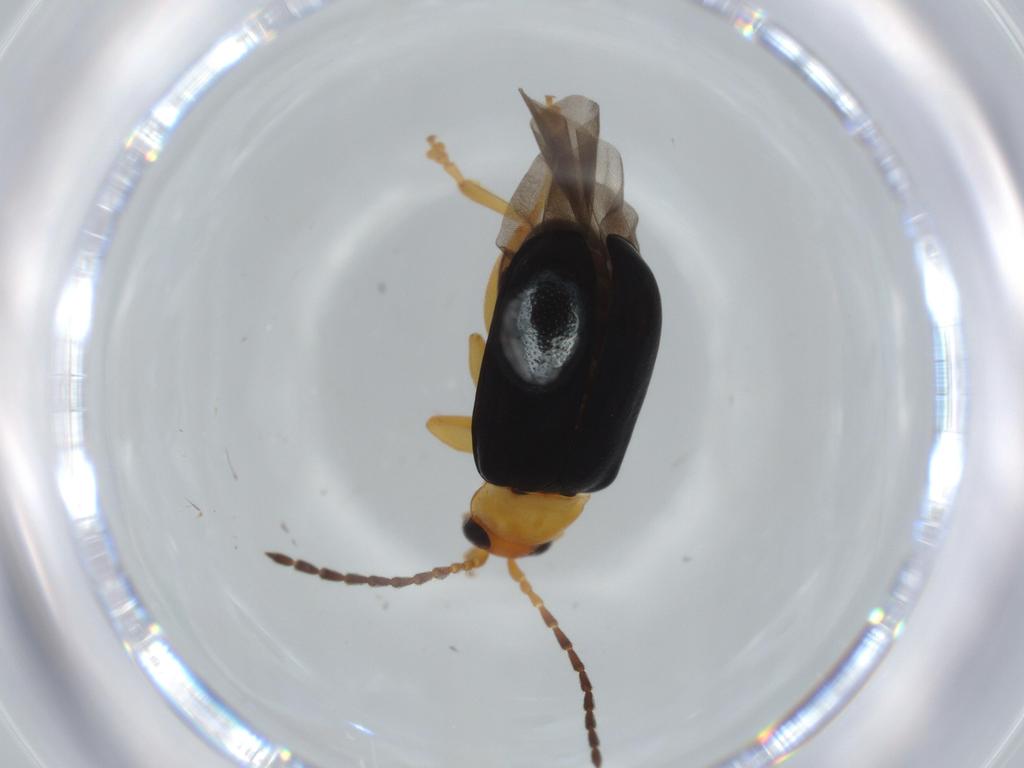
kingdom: Animalia
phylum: Arthropoda
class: Insecta
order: Coleoptera
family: Chrysomelidae
